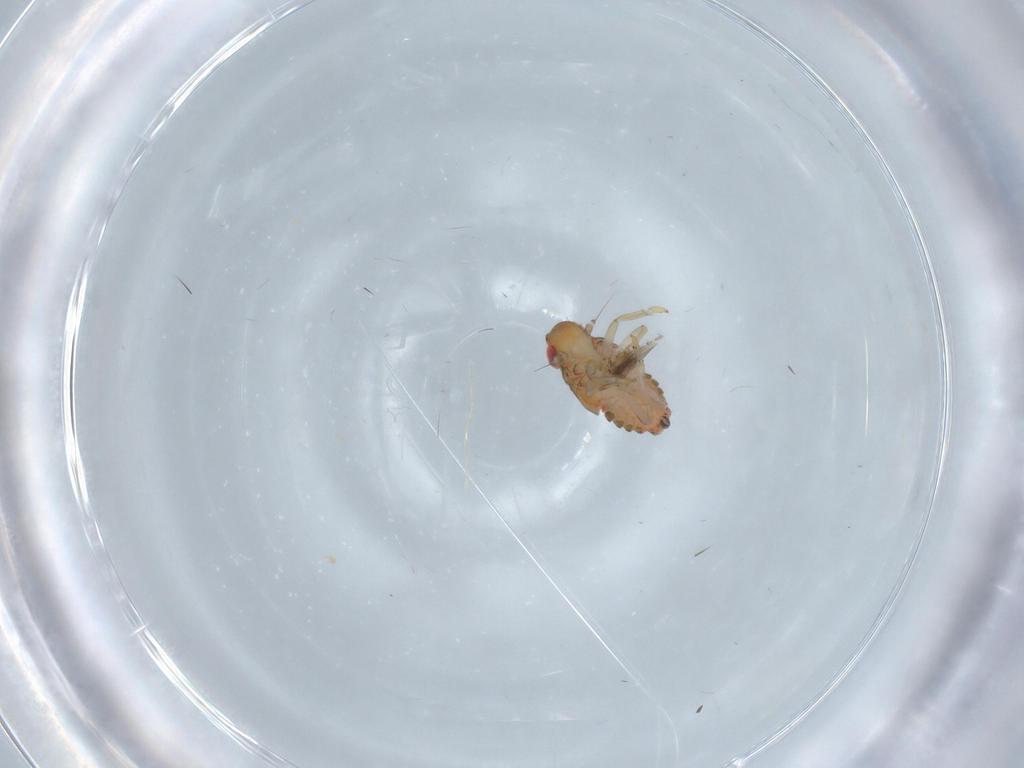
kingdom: Animalia
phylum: Arthropoda
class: Insecta
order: Hemiptera
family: Issidae
